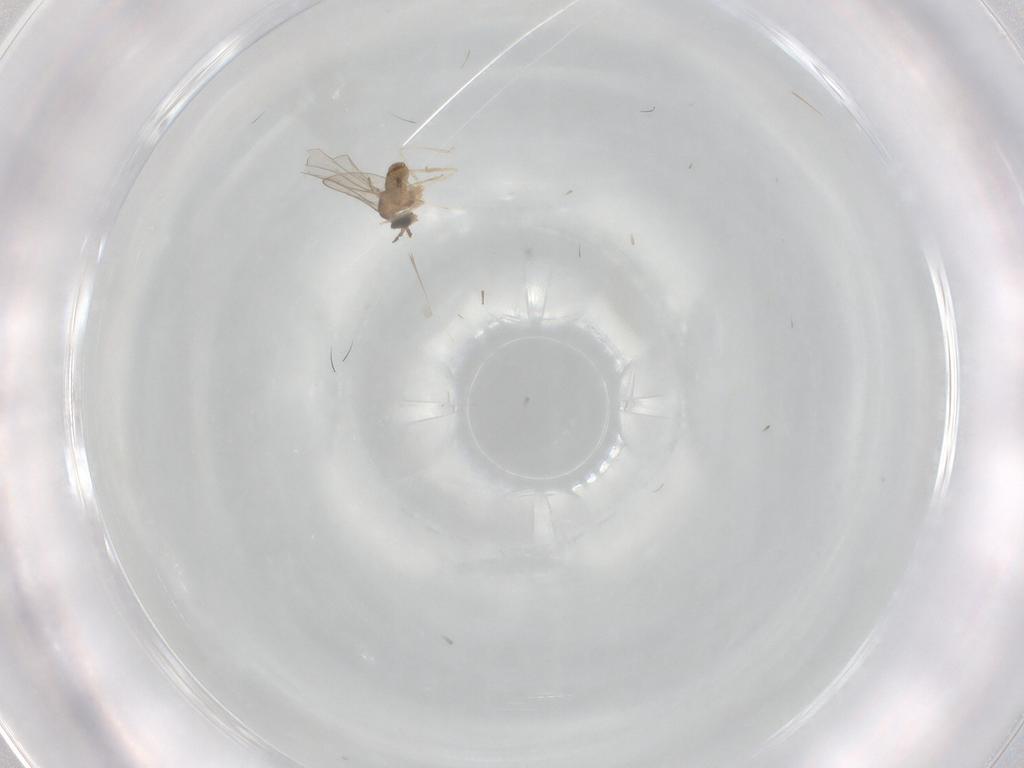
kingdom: Animalia
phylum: Arthropoda
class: Insecta
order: Diptera
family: Cecidomyiidae
